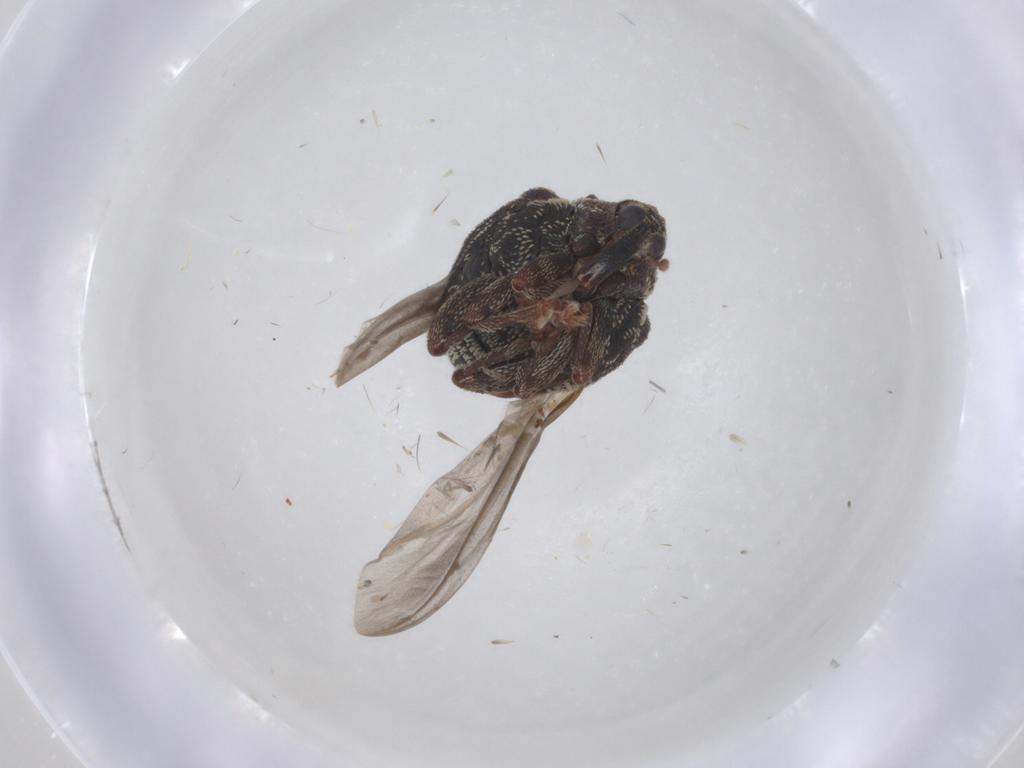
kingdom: Animalia
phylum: Arthropoda
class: Insecta
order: Coleoptera
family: Curculionidae
